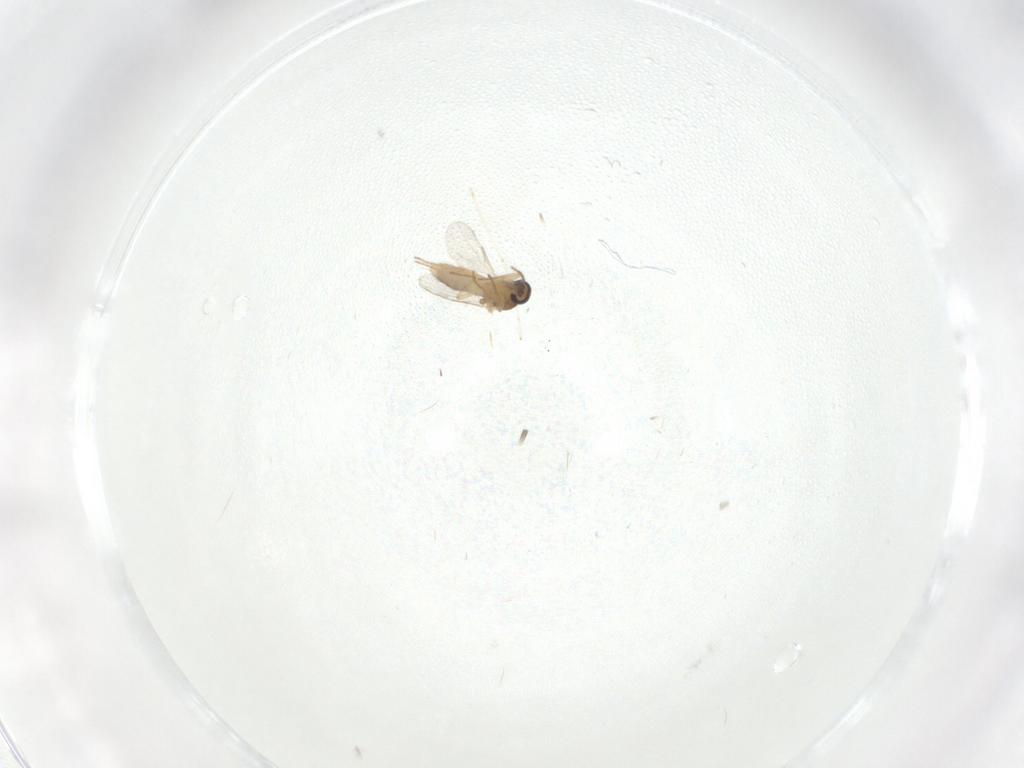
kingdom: Animalia
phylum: Arthropoda
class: Insecta
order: Diptera
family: Ceratopogonidae
